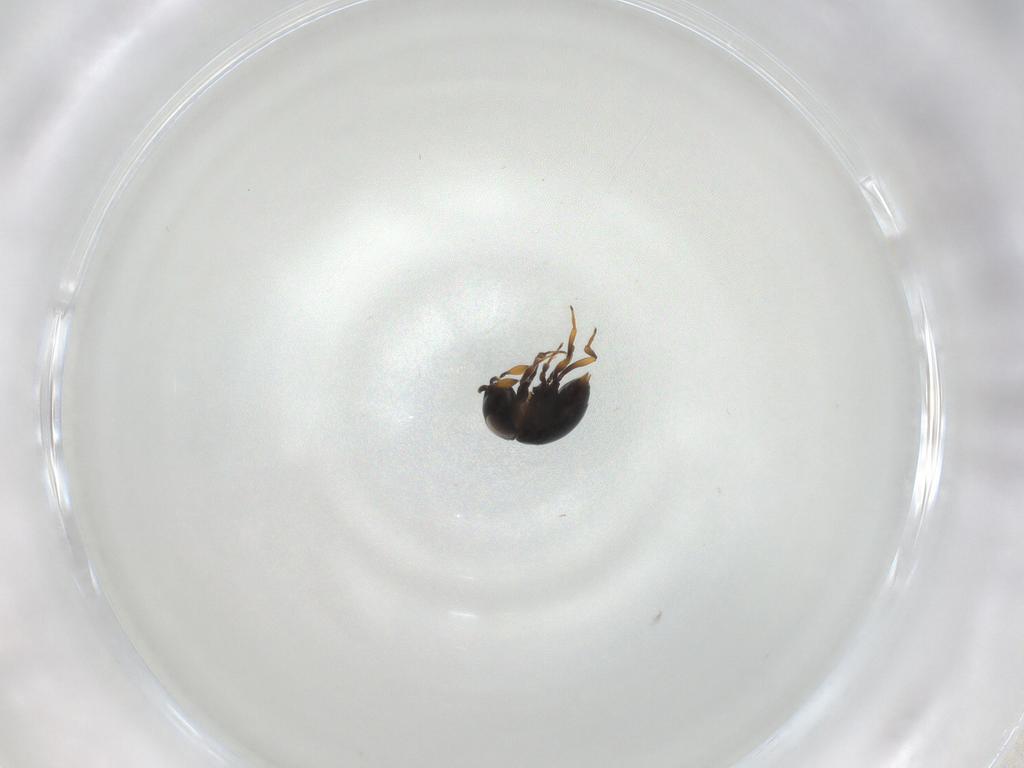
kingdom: Animalia
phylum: Arthropoda
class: Insecta
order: Hymenoptera
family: Scelionidae
